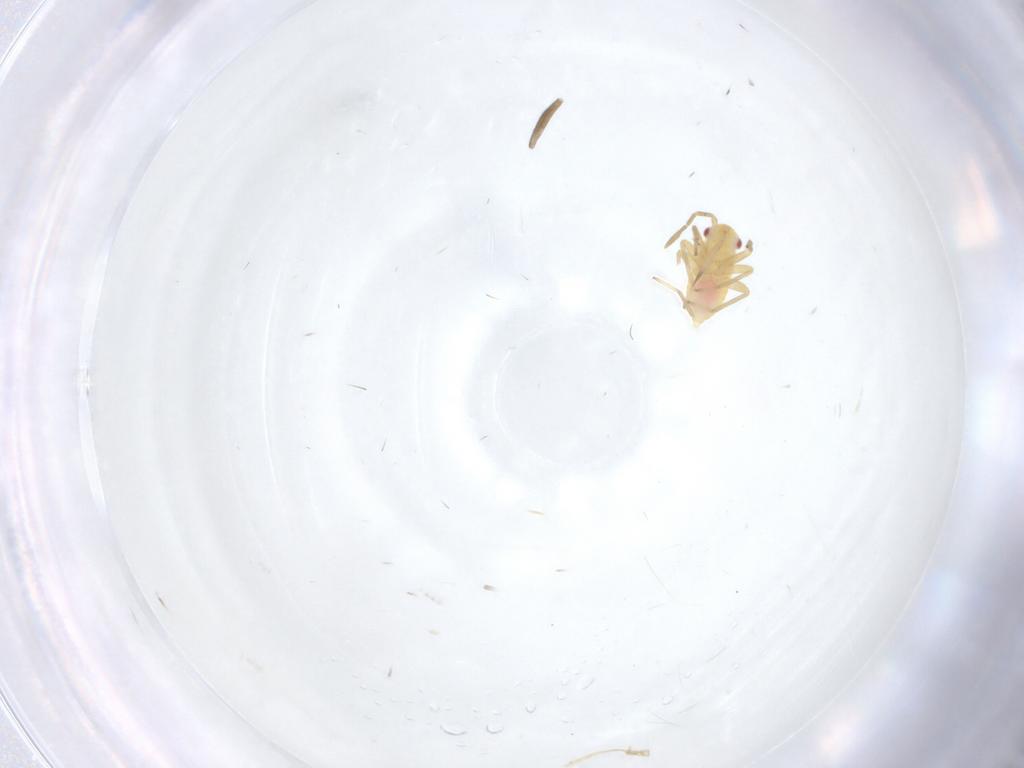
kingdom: Animalia
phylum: Arthropoda
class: Insecta
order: Hemiptera
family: Miridae
